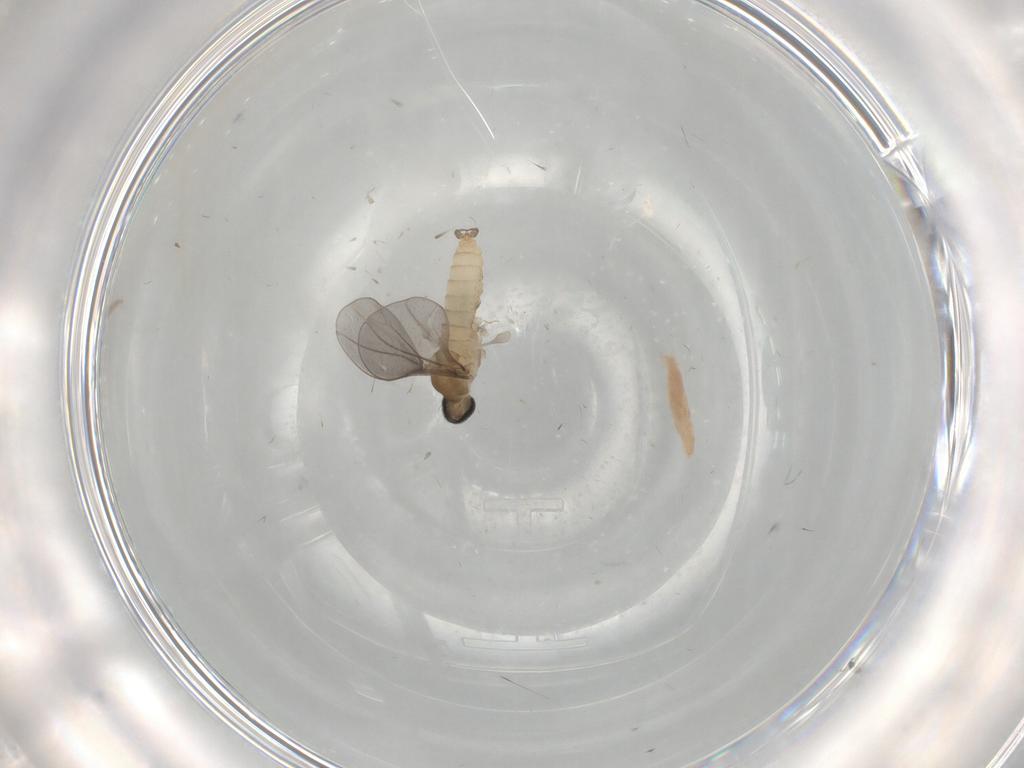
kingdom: Animalia
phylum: Arthropoda
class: Insecta
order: Diptera
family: Cecidomyiidae
